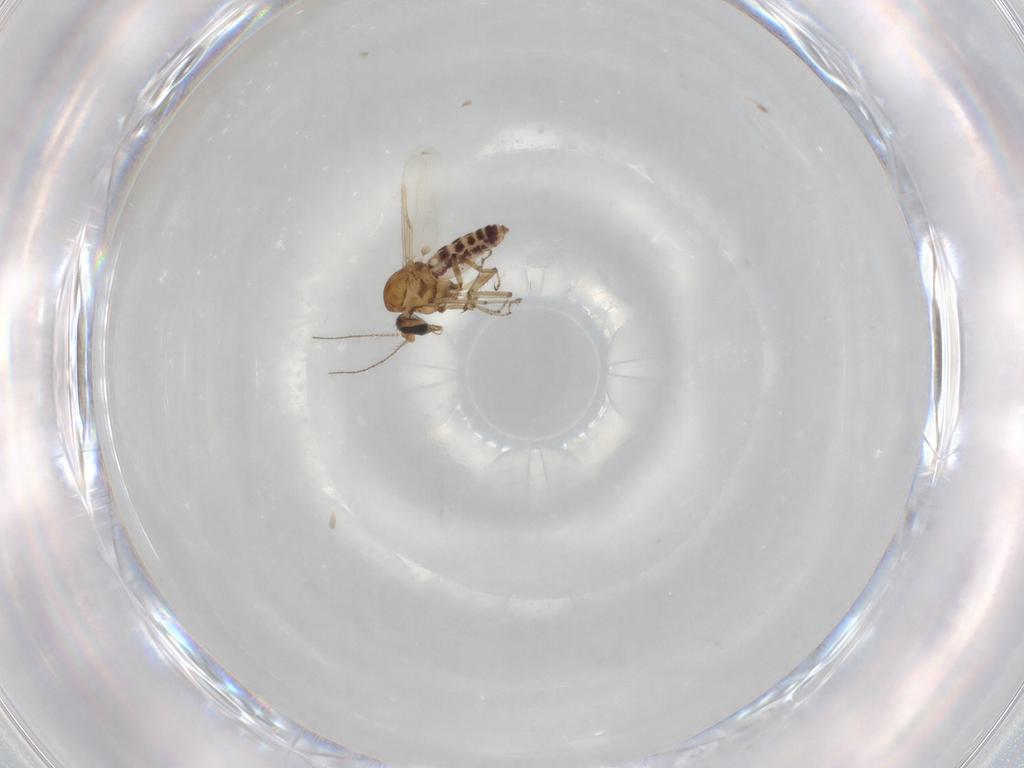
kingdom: Animalia
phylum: Arthropoda
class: Insecta
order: Diptera
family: Ceratopogonidae
